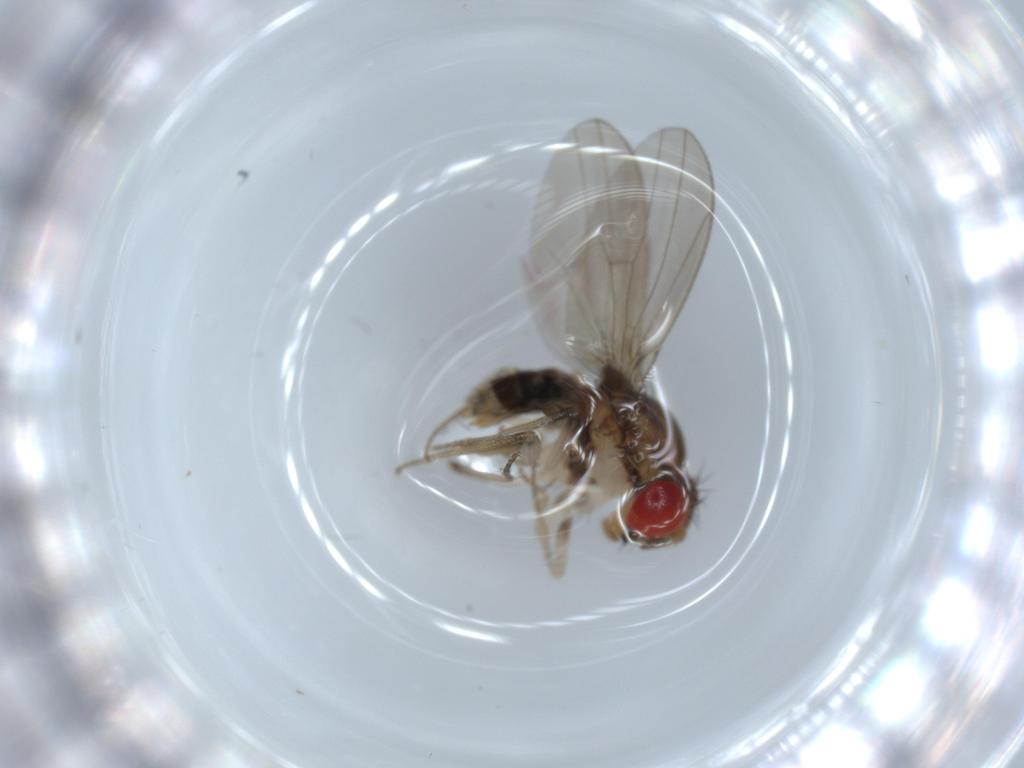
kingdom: Animalia
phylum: Arthropoda
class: Insecta
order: Diptera
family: Drosophilidae
